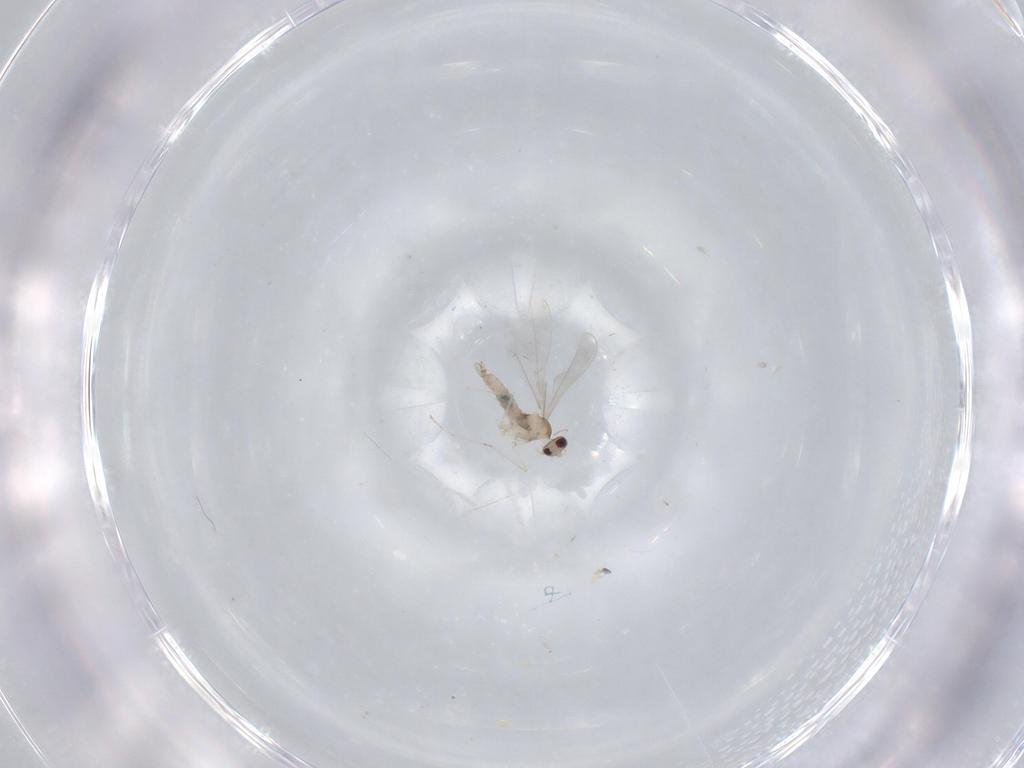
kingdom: Animalia
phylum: Arthropoda
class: Insecta
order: Diptera
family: Cecidomyiidae
